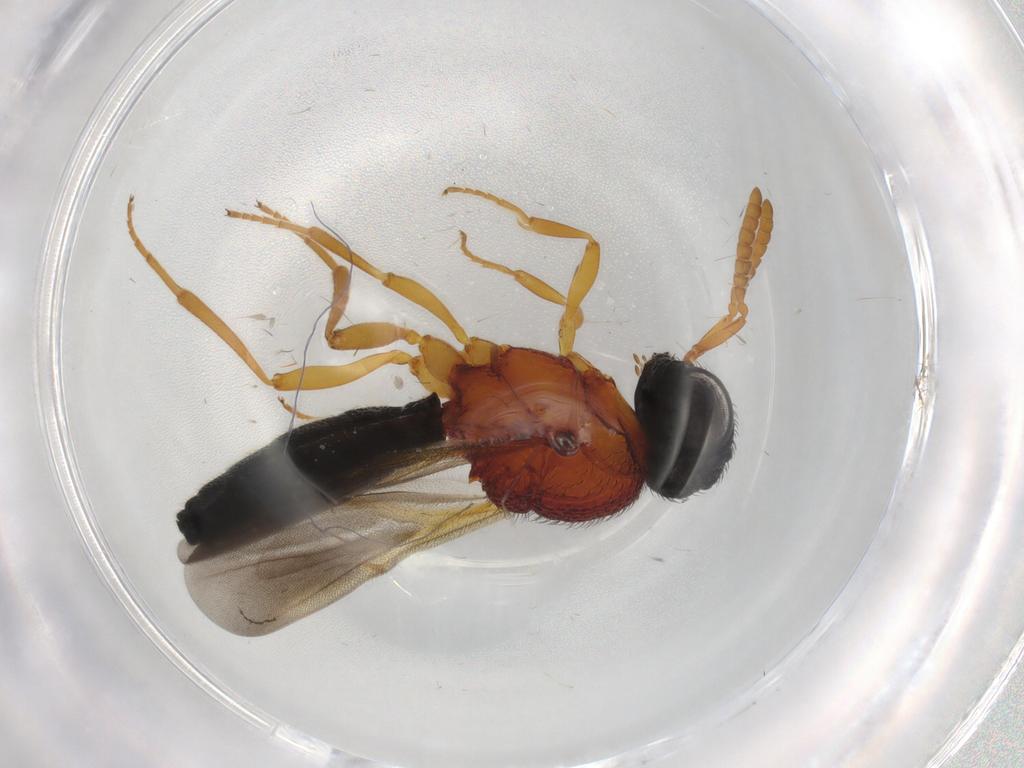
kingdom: Animalia
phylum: Arthropoda
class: Insecta
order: Hymenoptera
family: Scelionidae
